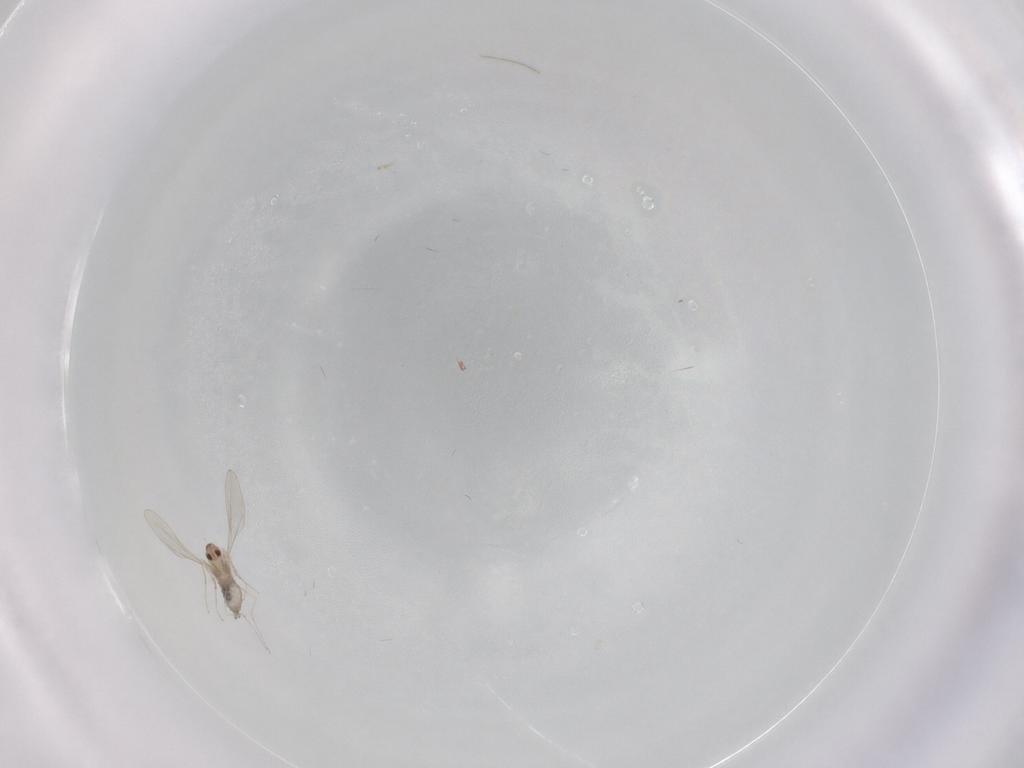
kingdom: Animalia
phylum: Arthropoda
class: Insecta
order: Diptera
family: Cecidomyiidae
